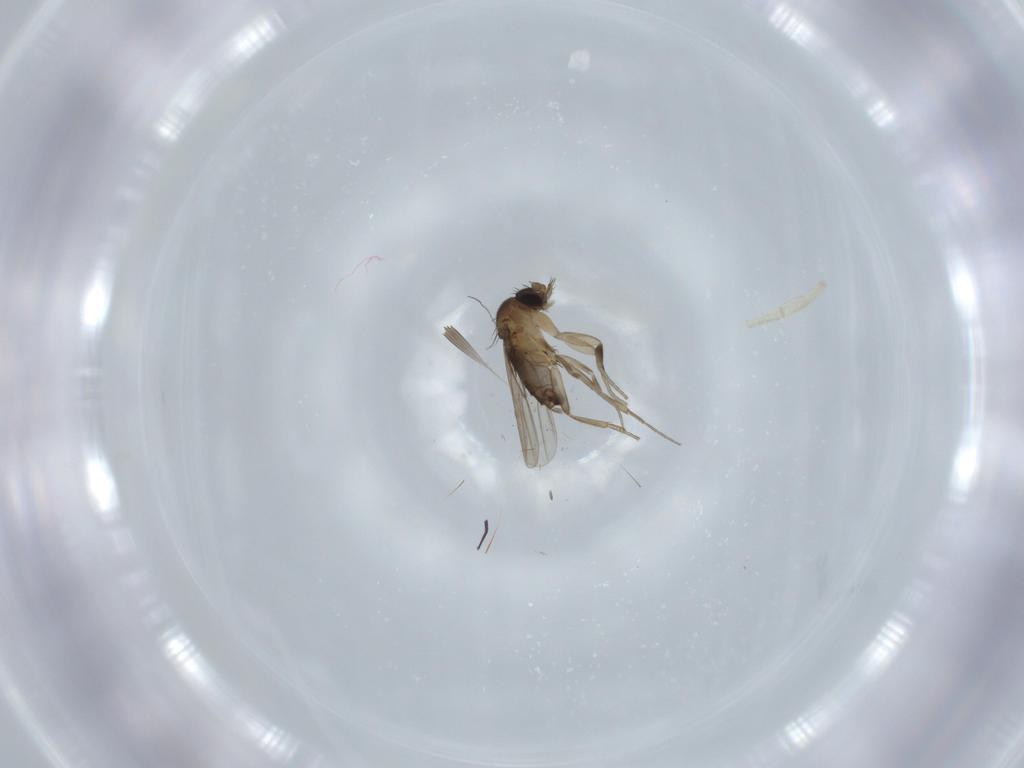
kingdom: Animalia
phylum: Arthropoda
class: Insecta
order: Diptera
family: Phoridae
